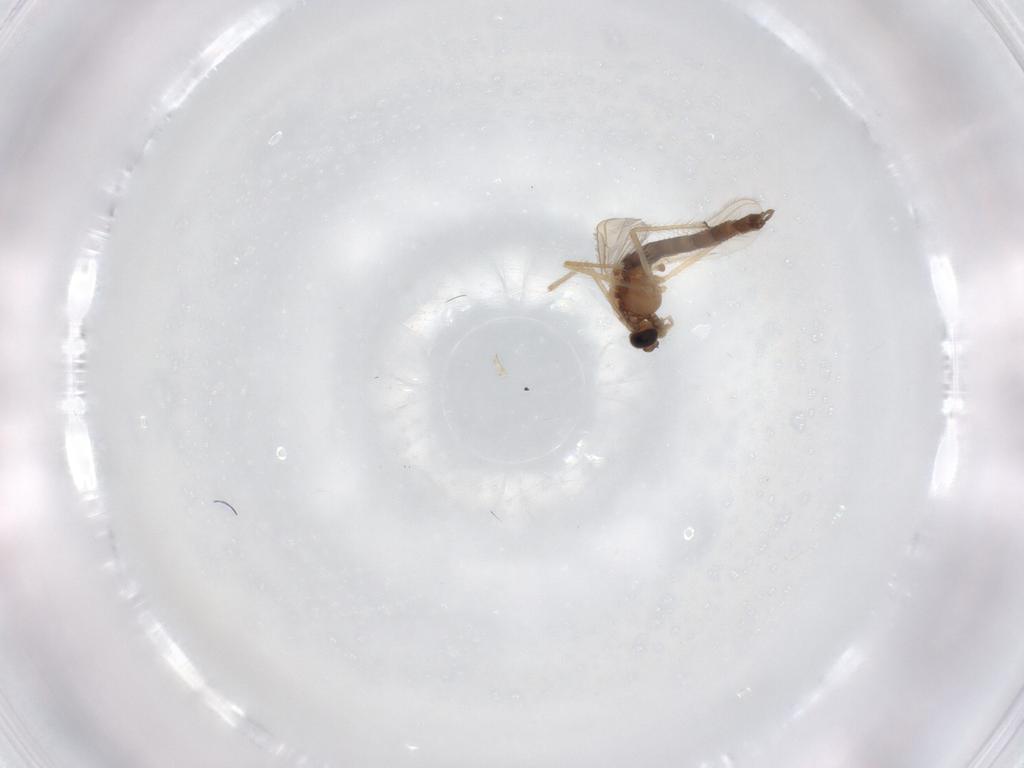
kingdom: Animalia
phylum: Arthropoda
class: Insecta
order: Diptera
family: Chironomidae
